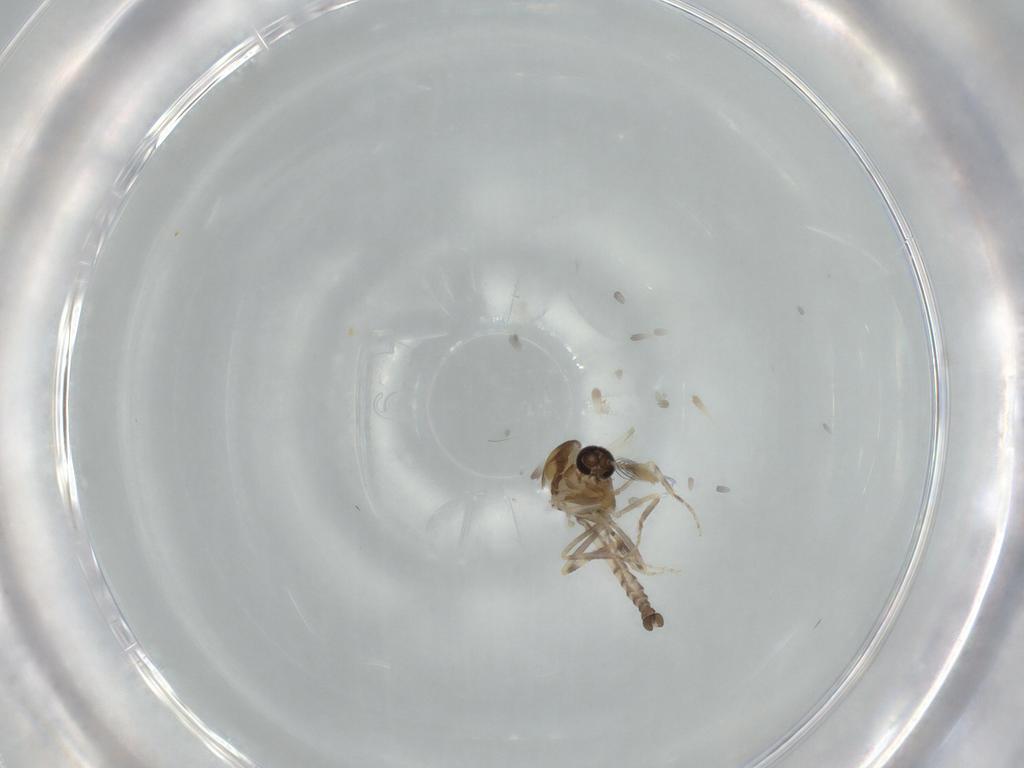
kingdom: Animalia
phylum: Arthropoda
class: Insecta
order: Diptera
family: Ceratopogonidae
